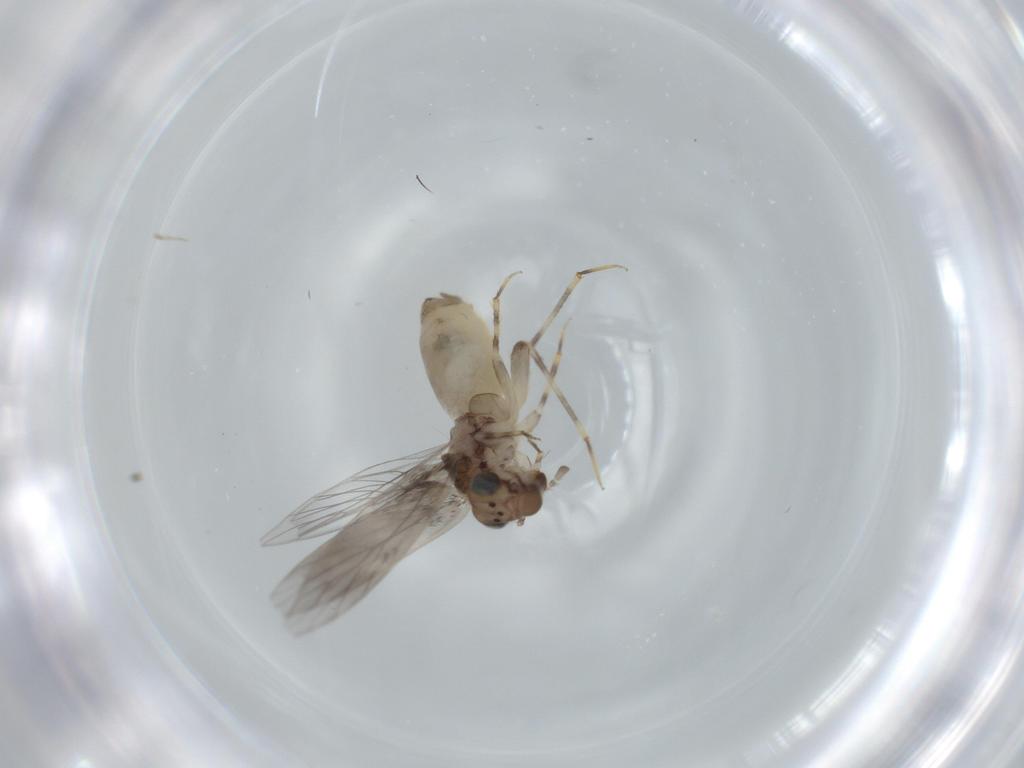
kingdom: Animalia
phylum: Arthropoda
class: Insecta
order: Psocodea
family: Lepidopsocidae
